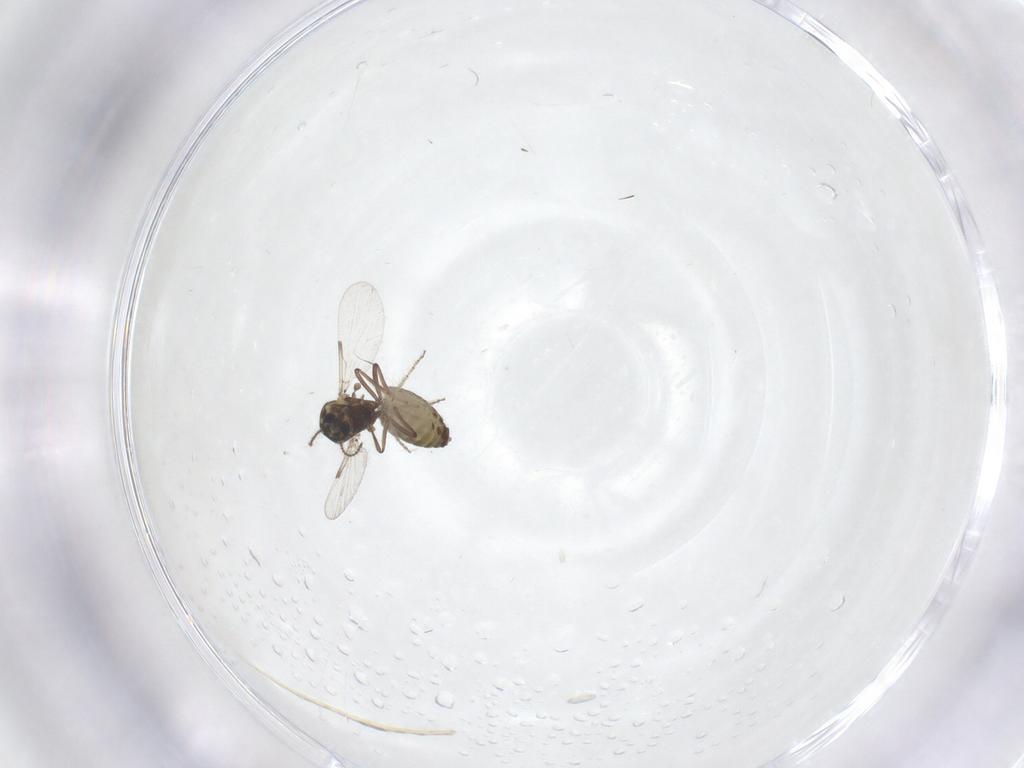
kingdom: Animalia
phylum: Arthropoda
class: Insecta
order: Diptera
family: Ceratopogonidae
